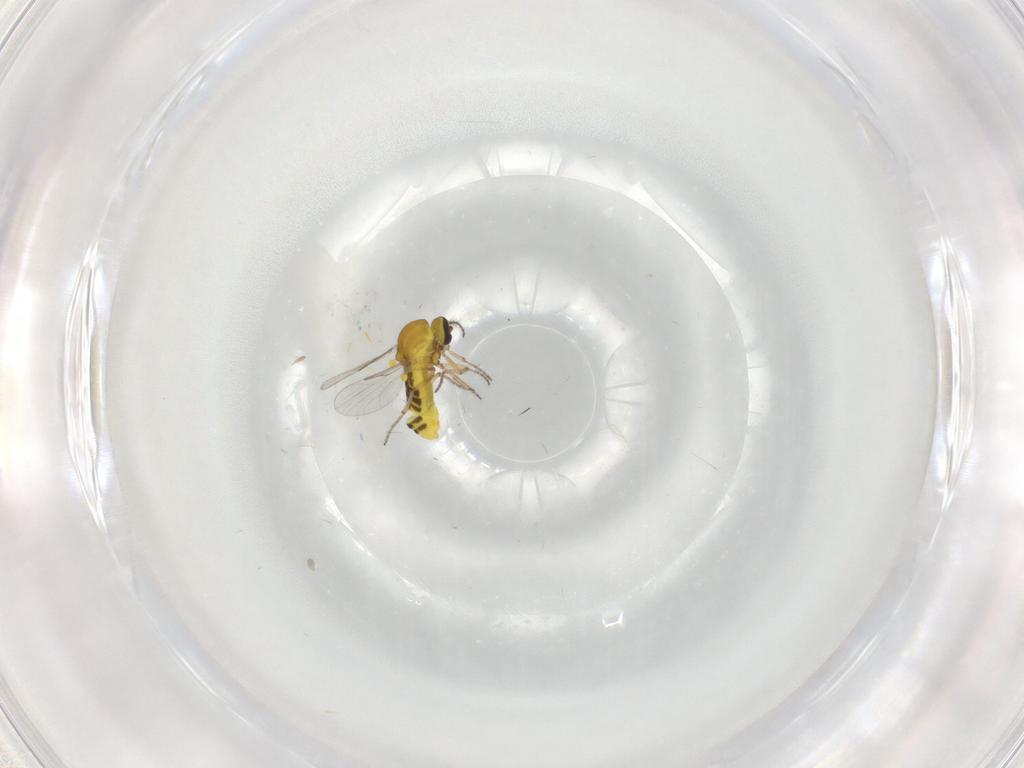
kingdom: Animalia
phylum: Arthropoda
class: Insecta
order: Diptera
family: Ceratopogonidae
